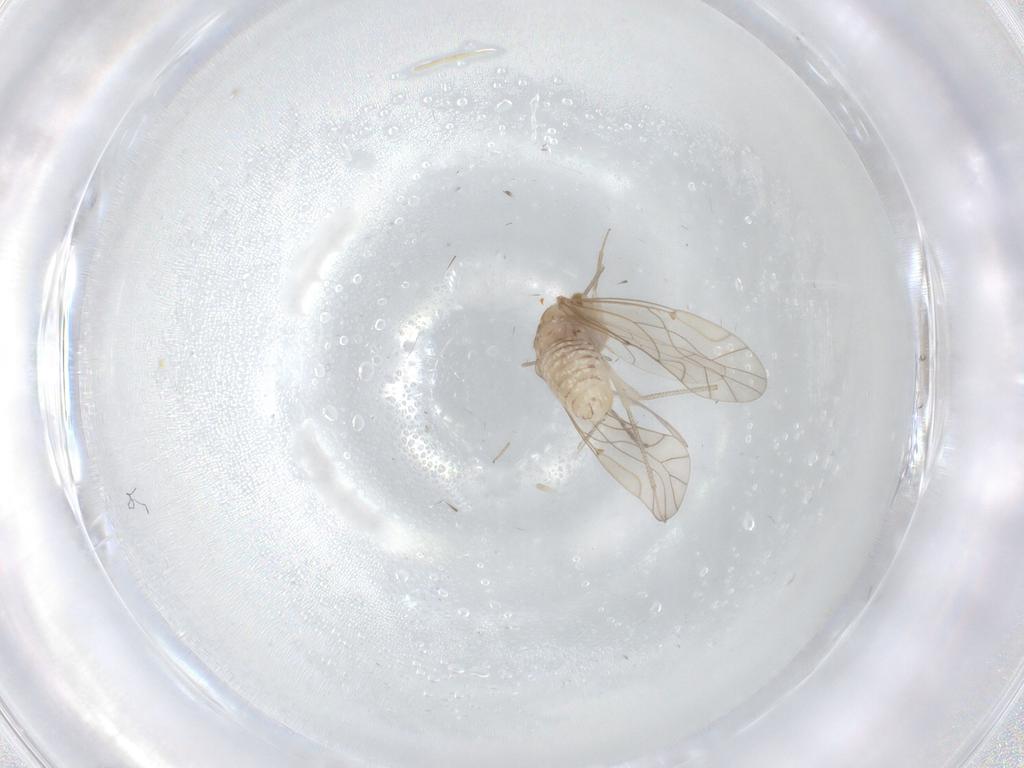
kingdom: Animalia
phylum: Arthropoda
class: Insecta
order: Psocodea
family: Lachesillidae
